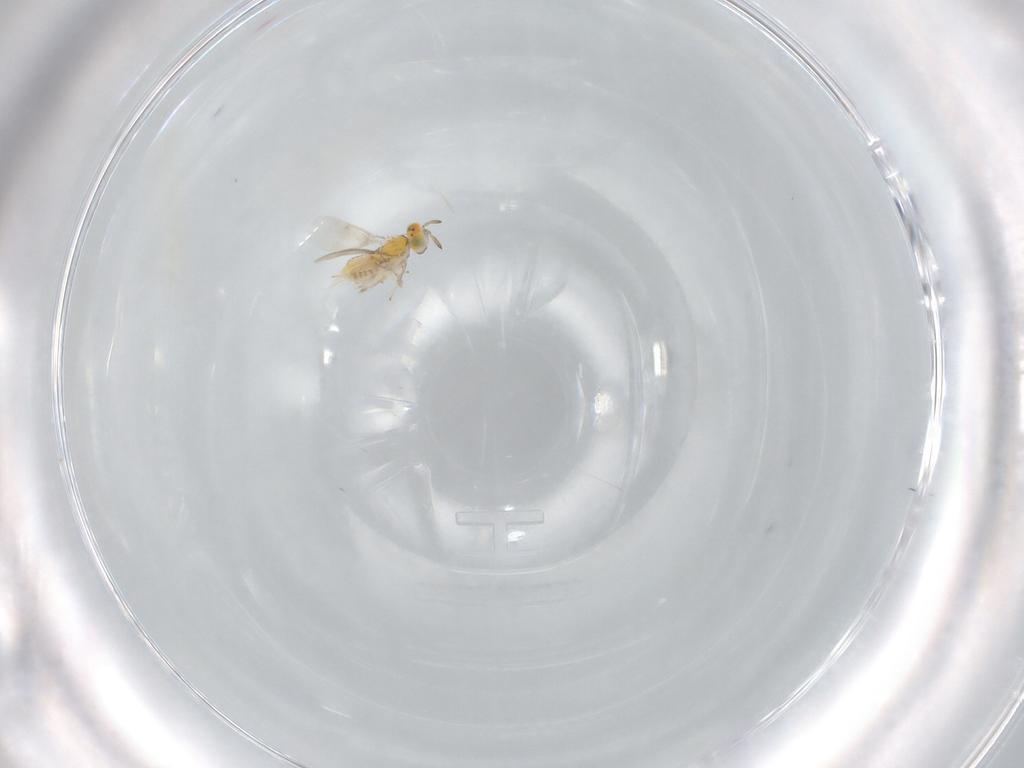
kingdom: Animalia
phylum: Arthropoda
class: Insecta
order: Hymenoptera
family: Aphelinidae
